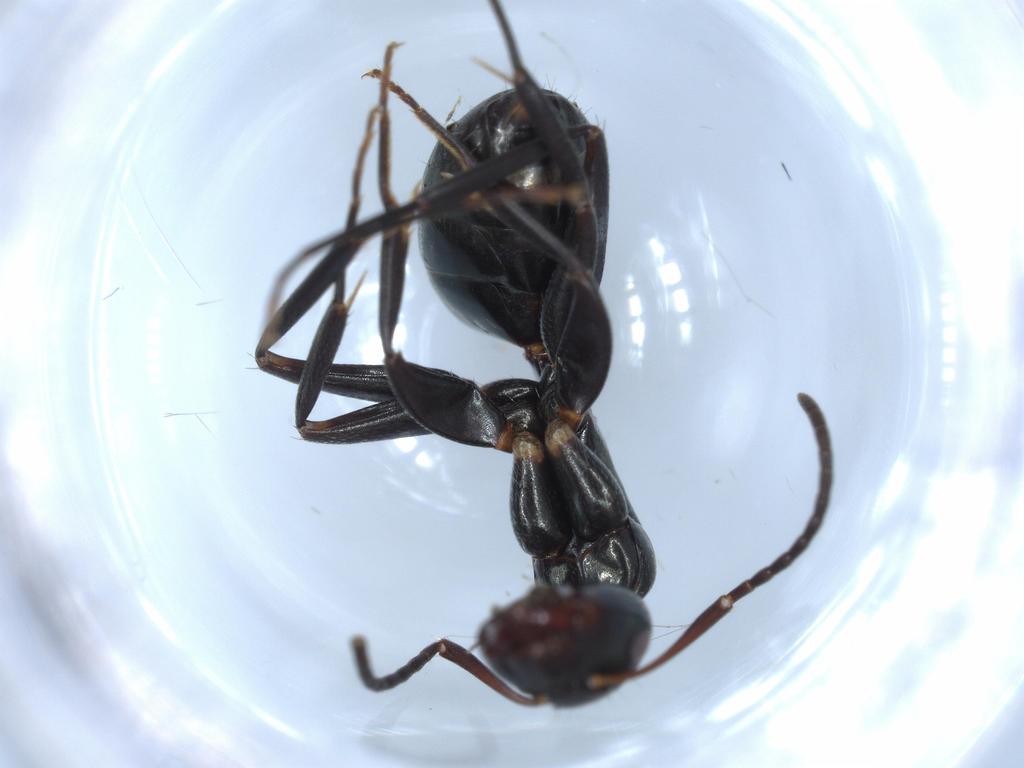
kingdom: Animalia
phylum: Arthropoda
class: Insecta
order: Hymenoptera
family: Formicidae
